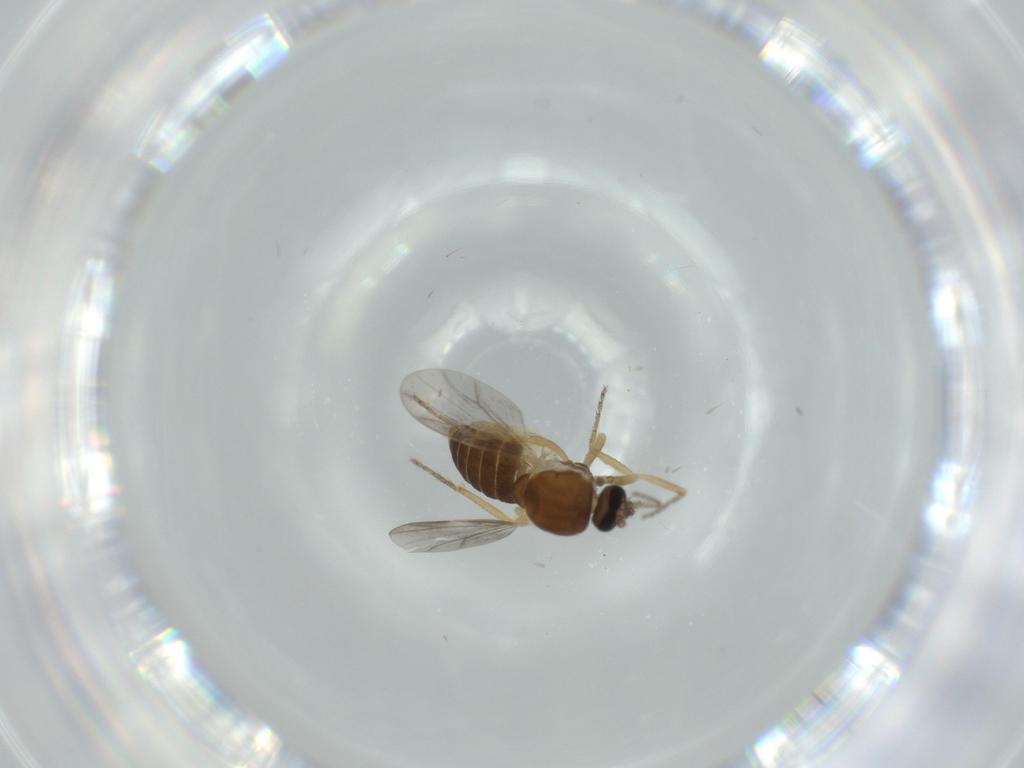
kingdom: Animalia
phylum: Arthropoda
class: Insecta
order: Diptera
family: Ceratopogonidae
